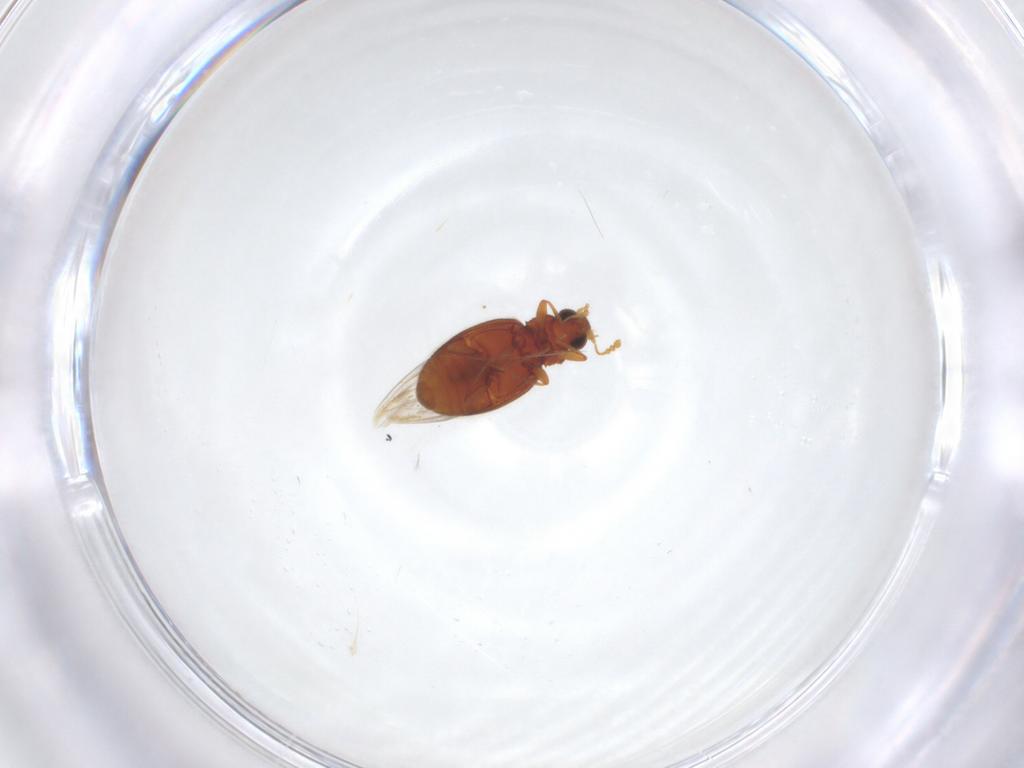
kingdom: Animalia
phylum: Arthropoda
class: Insecta
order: Coleoptera
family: Latridiidae
